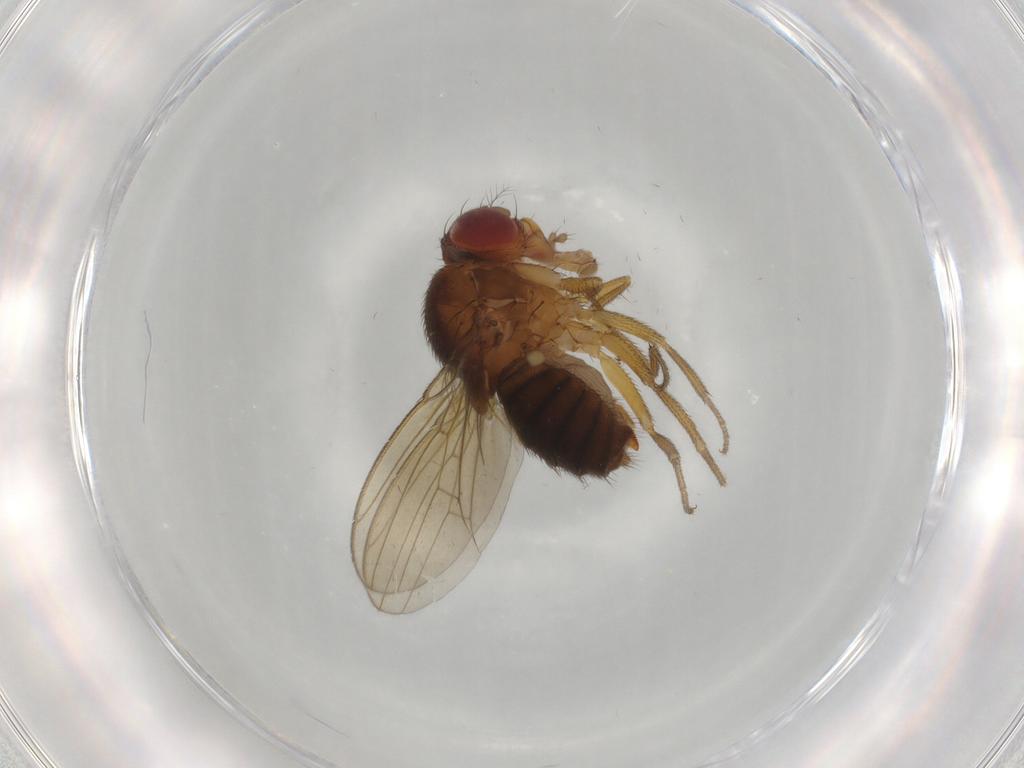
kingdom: Animalia
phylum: Arthropoda
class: Insecta
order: Diptera
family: Drosophilidae
